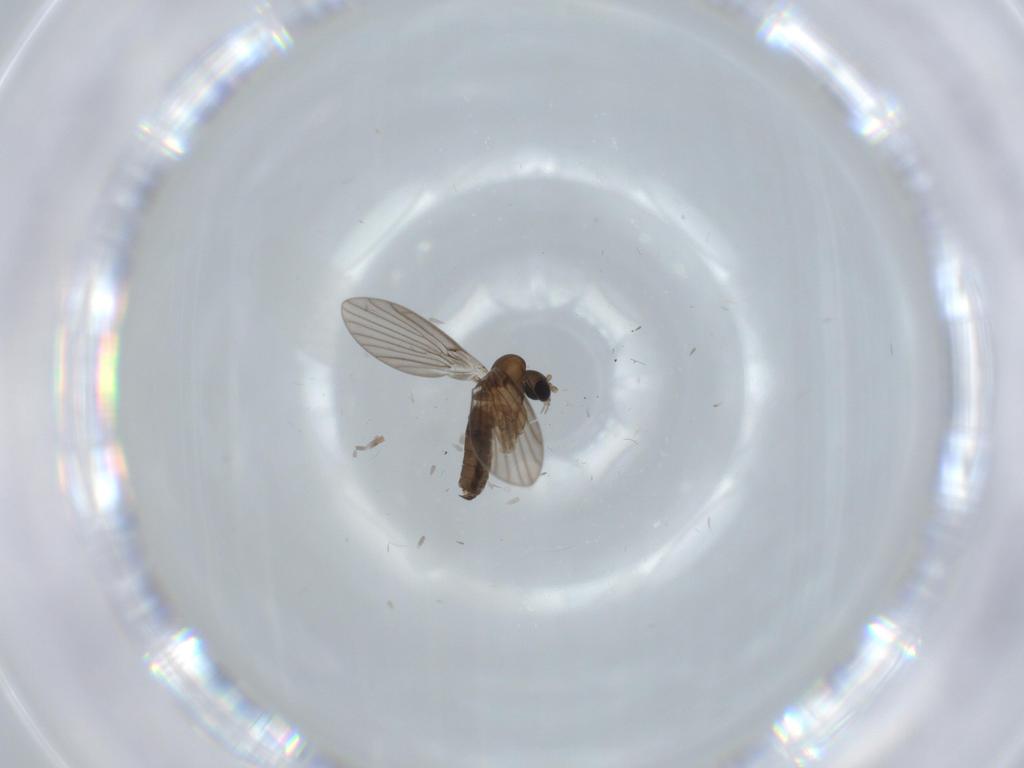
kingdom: Animalia
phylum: Arthropoda
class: Insecta
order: Diptera
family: Psychodidae
